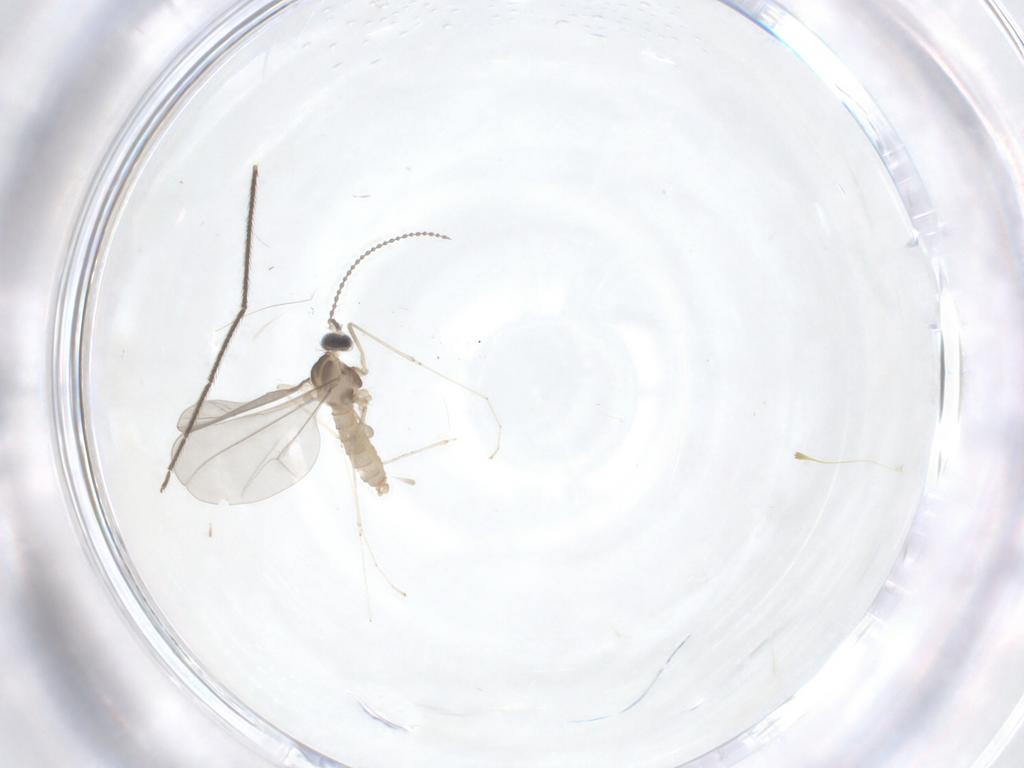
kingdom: Animalia
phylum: Arthropoda
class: Insecta
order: Diptera
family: Chironomidae
